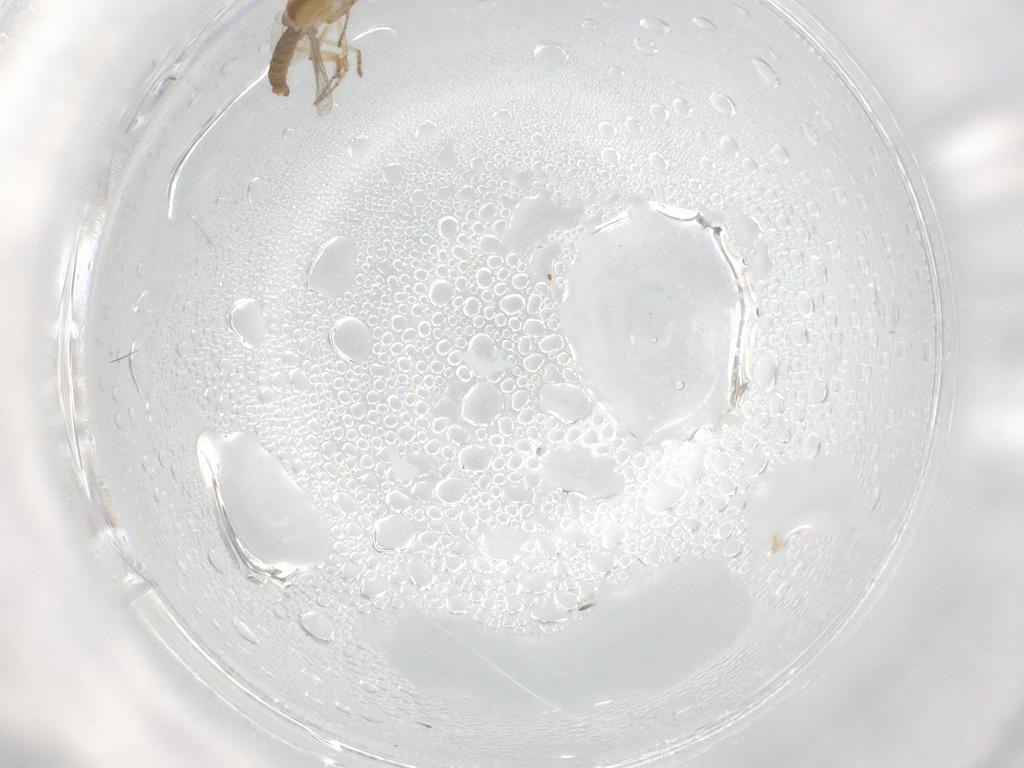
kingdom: Animalia
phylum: Arthropoda
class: Insecta
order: Diptera
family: Ceratopogonidae
